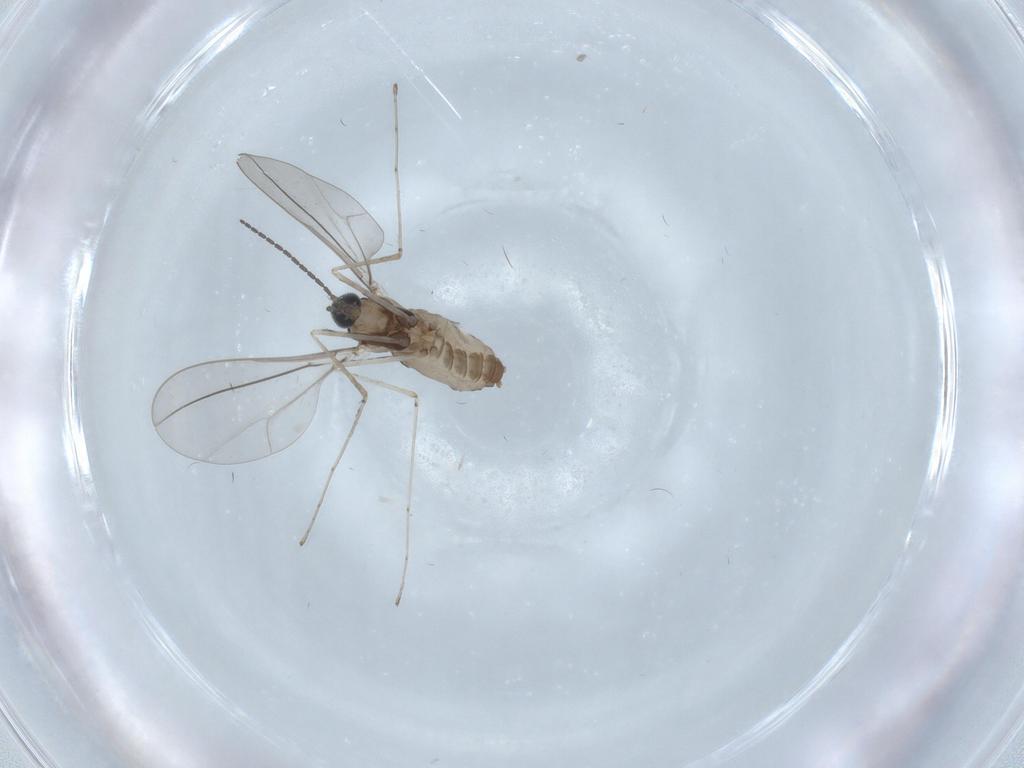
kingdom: Animalia
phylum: Arthropoda
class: Insecta
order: Diptera
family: Cecidomyiidae
